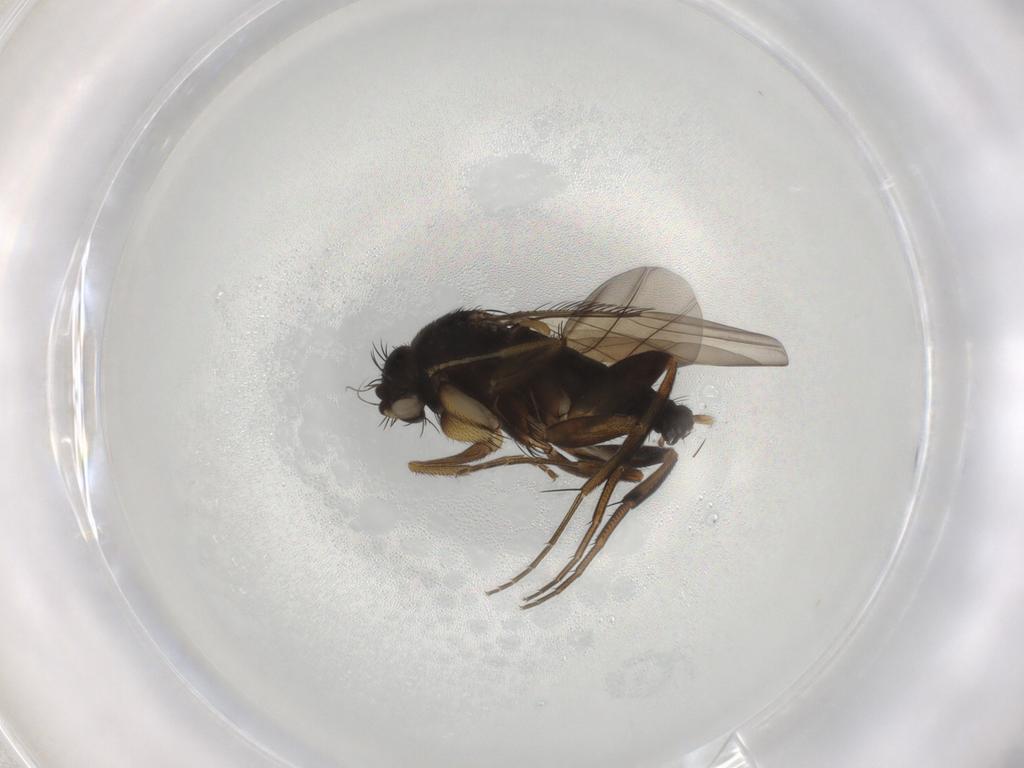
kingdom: Animalia
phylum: Arthropoda
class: Insecta
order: Diptera
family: Phoridae
